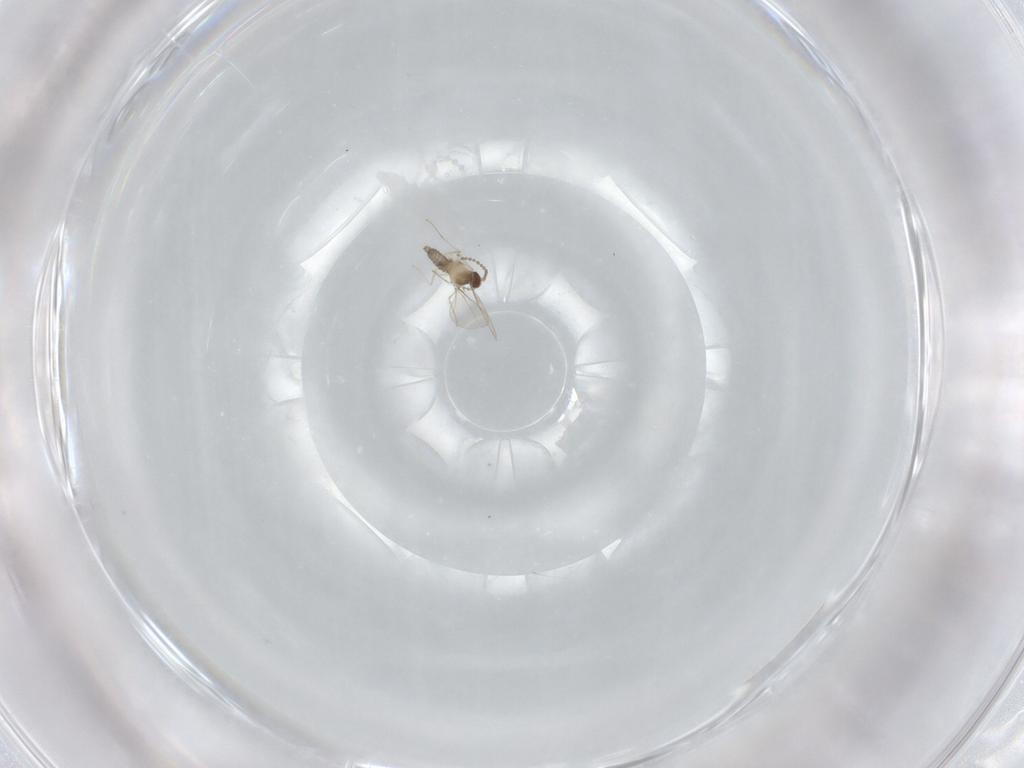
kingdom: Animalia
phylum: Arthropoda
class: Insecta
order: Diptera
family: Cecidomyiidae
